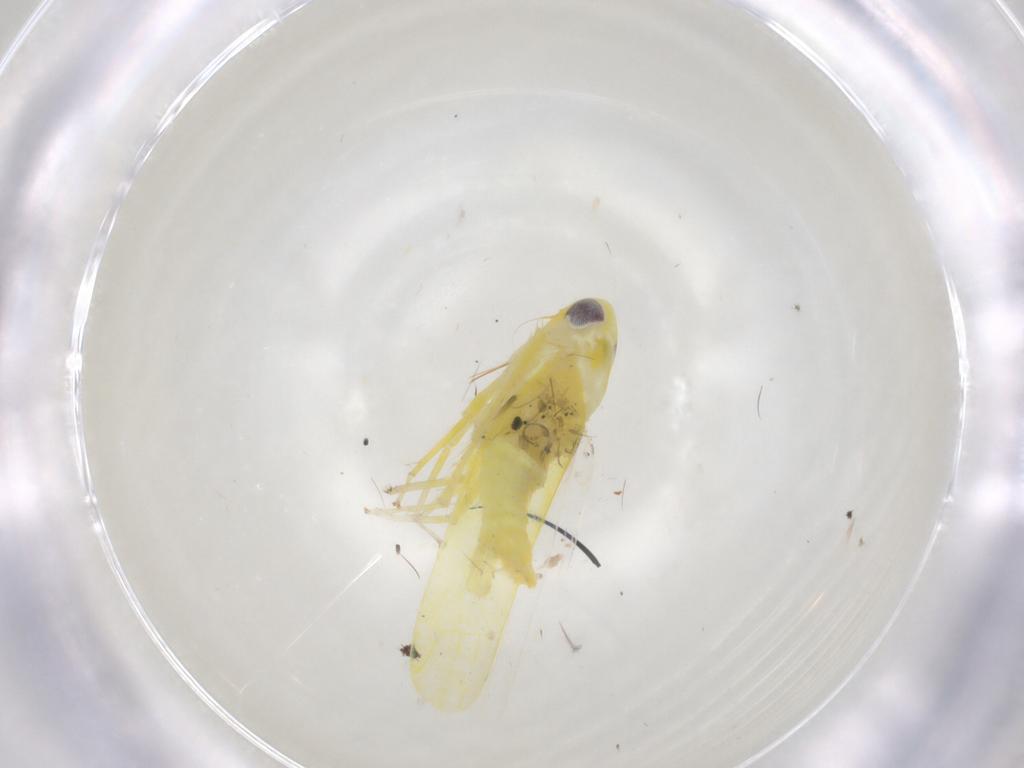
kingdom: Animalia
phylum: Arthropoda
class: Insecta
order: Hemiptera
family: Cicadellidae
